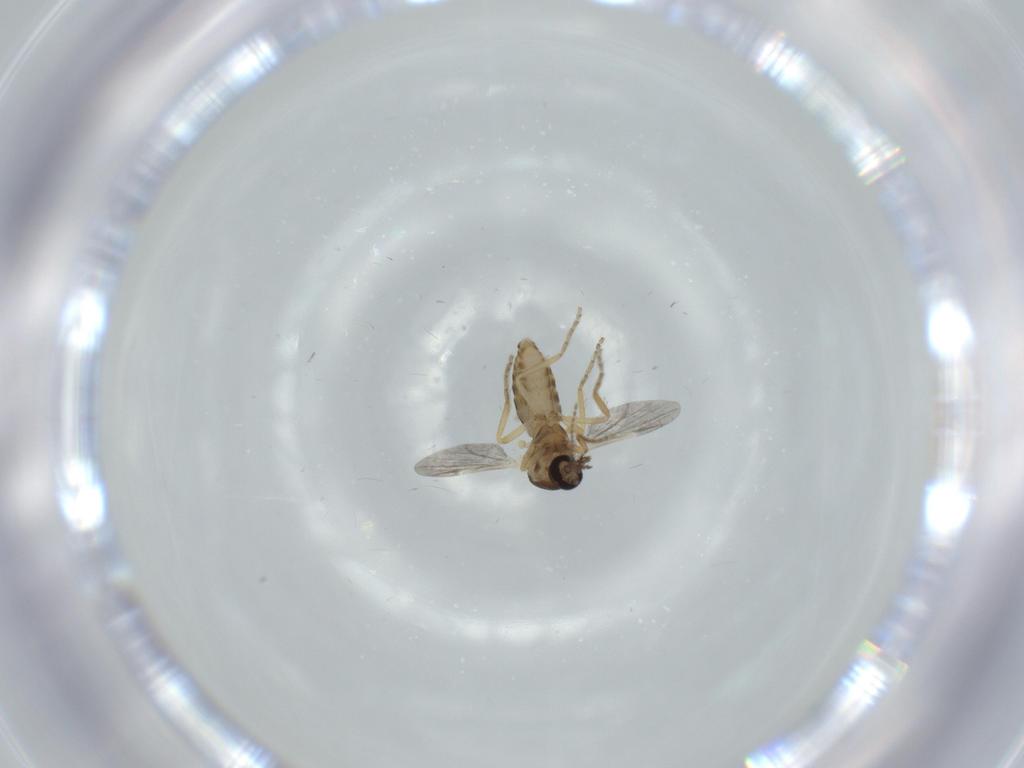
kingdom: Animalia
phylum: Arthropoda
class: Insecta
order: Diptera
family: Ceratopogonidae
